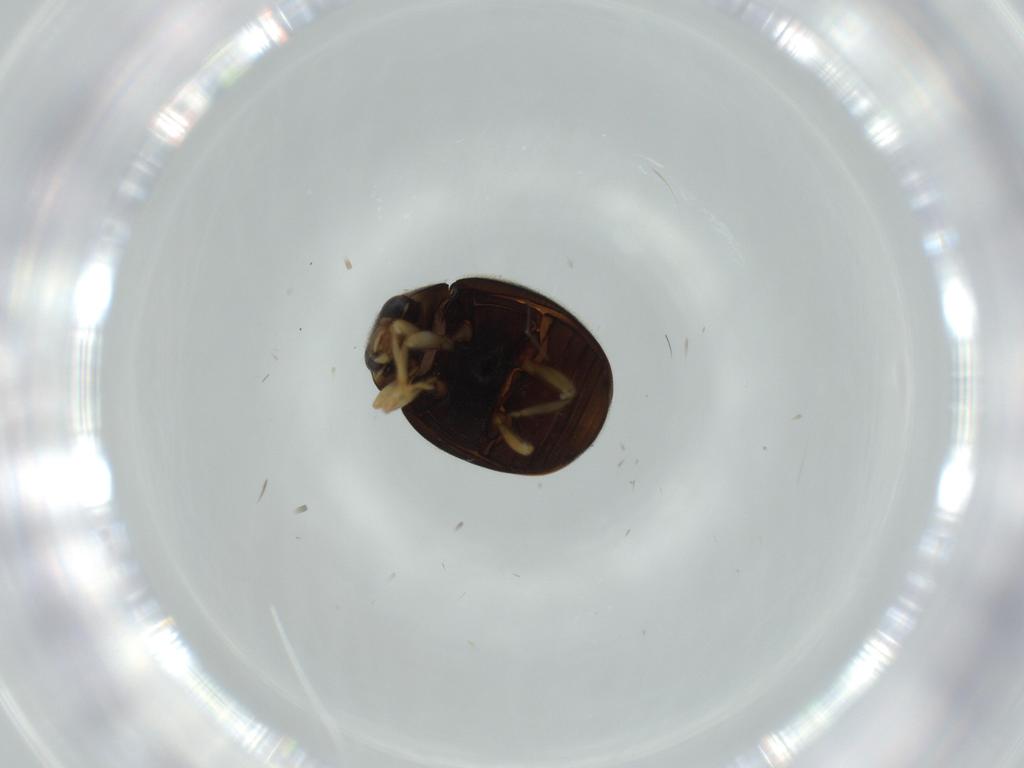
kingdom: Animalia
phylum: Arthropoda
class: Insecta
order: Coleoptera
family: Coccinellidae
